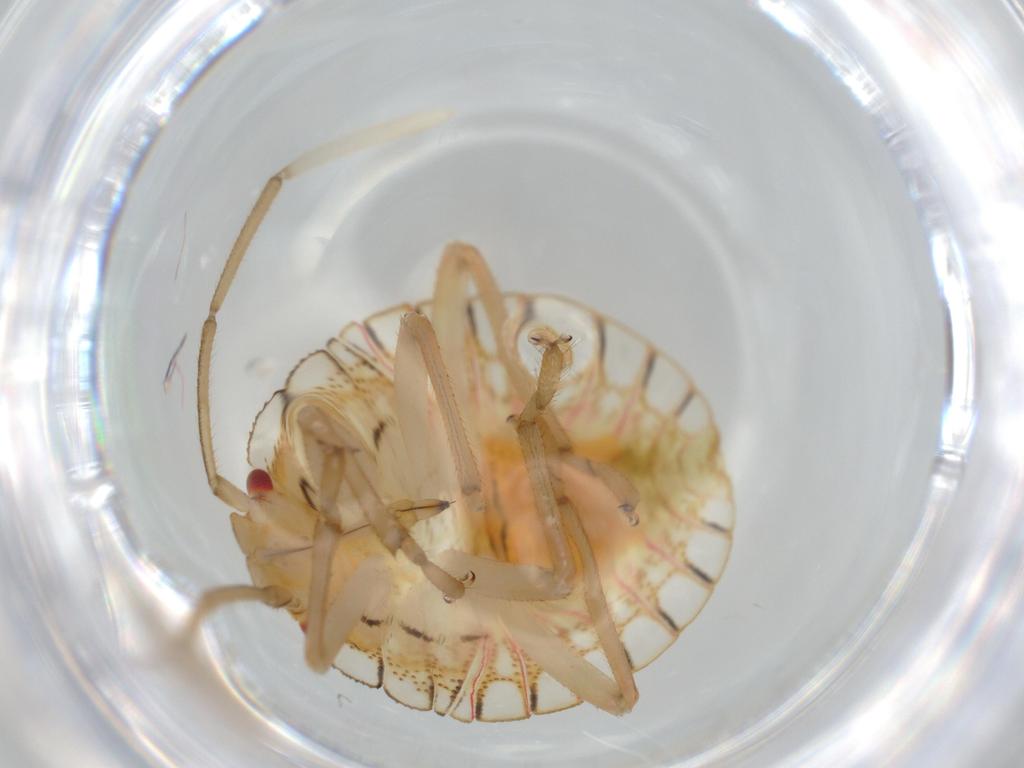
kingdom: Animalia
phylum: Arthropoda
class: Insecta
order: Hemiptera
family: Pentatomidae
